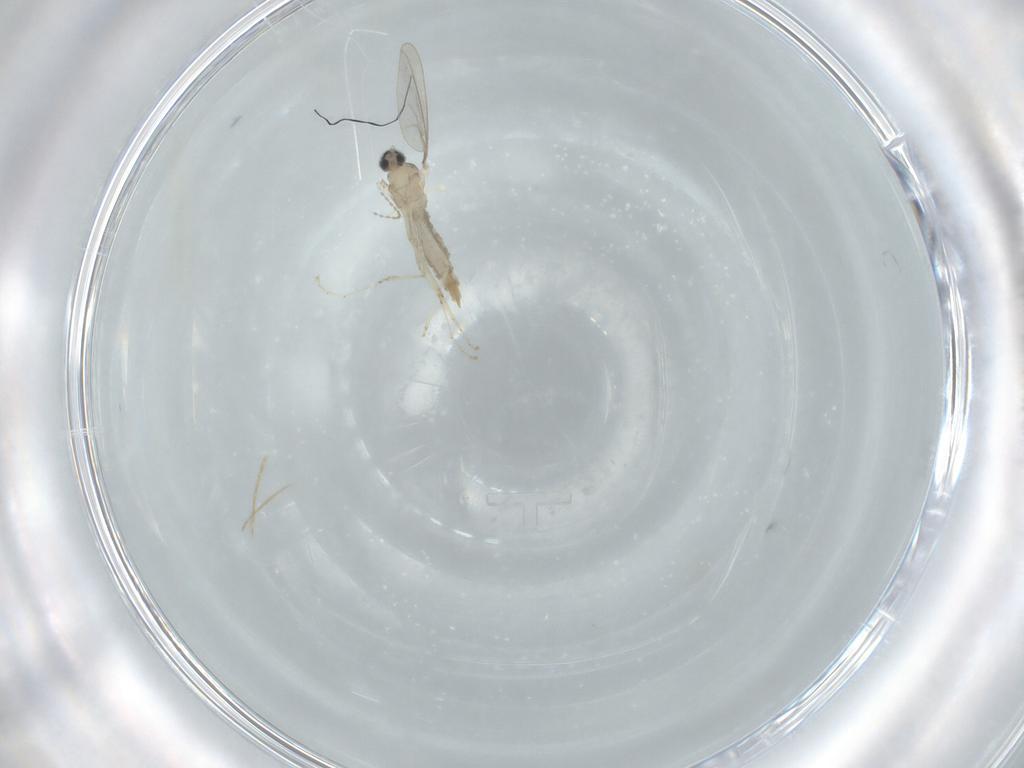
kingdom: Animalia
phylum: Arthropoda
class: Insecta
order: Diptera
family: Cecidomyiidae
